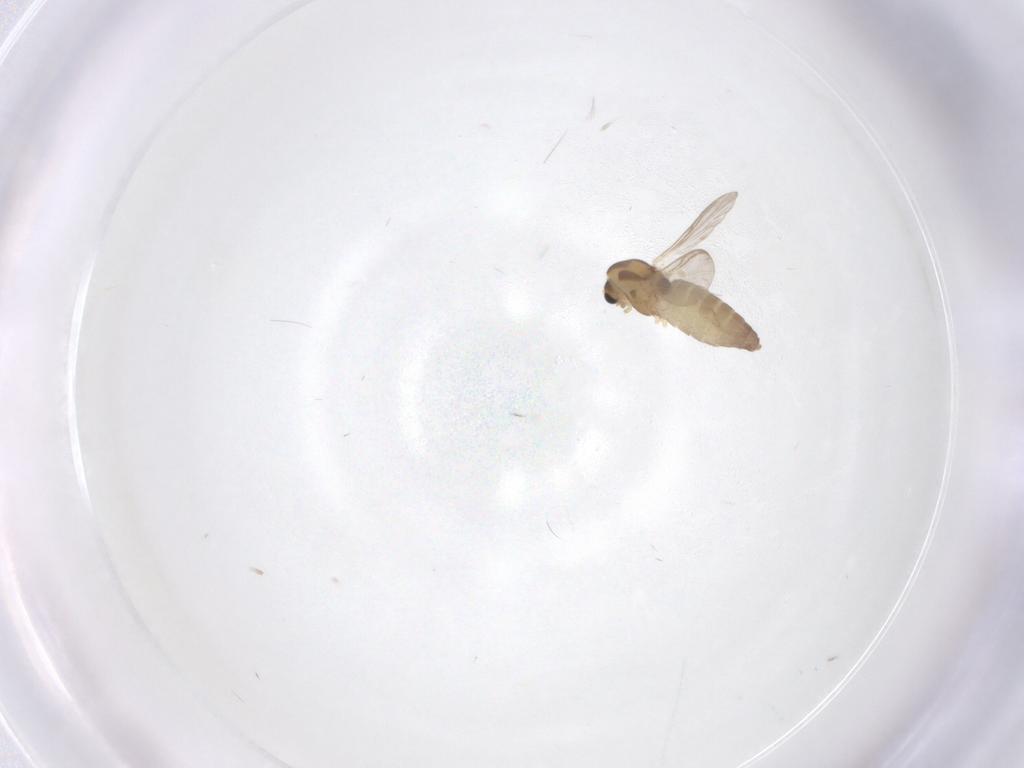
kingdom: Animalia
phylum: Arthropoda
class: Insecta
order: Diptera
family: Chironomidae
